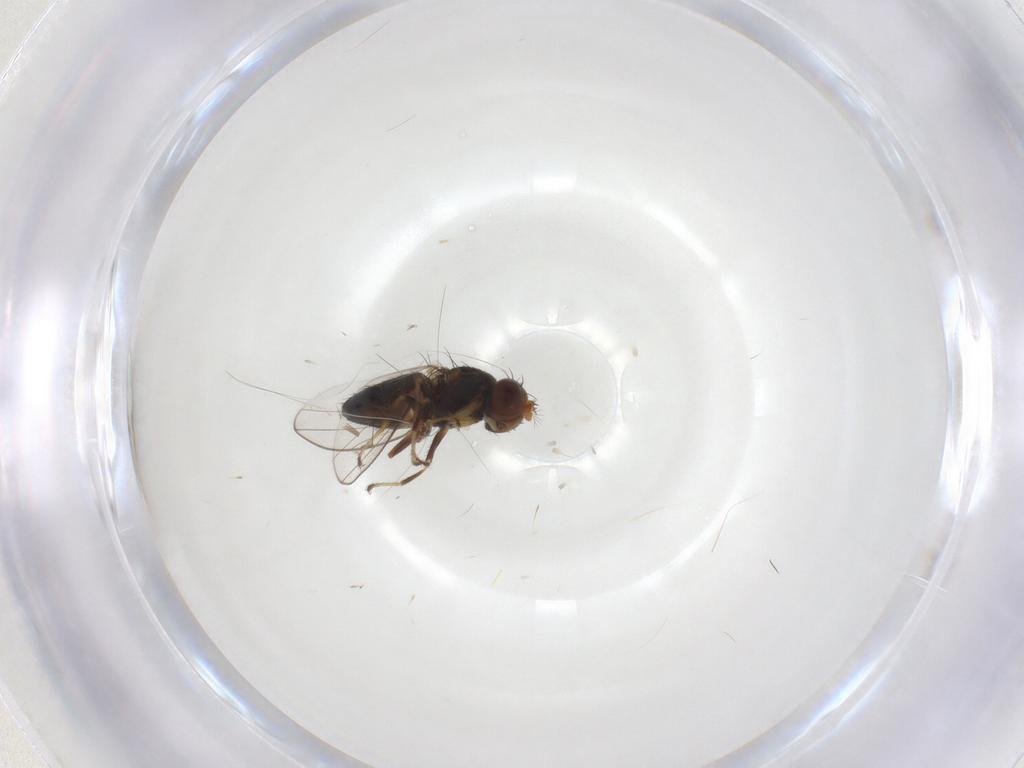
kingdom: Animalia
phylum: Arthropoda
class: Insecta
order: Diptera
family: Ephydridae
